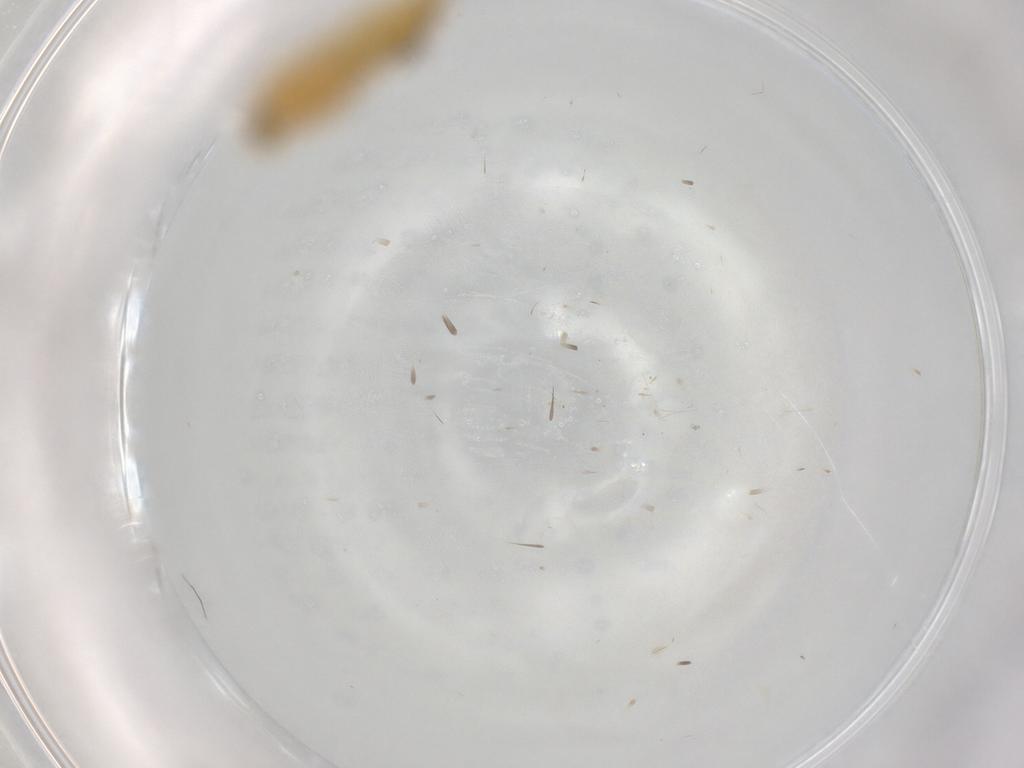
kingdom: Animalia
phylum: Arthropoda
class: Insecta
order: Hemiptera
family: Miridae
